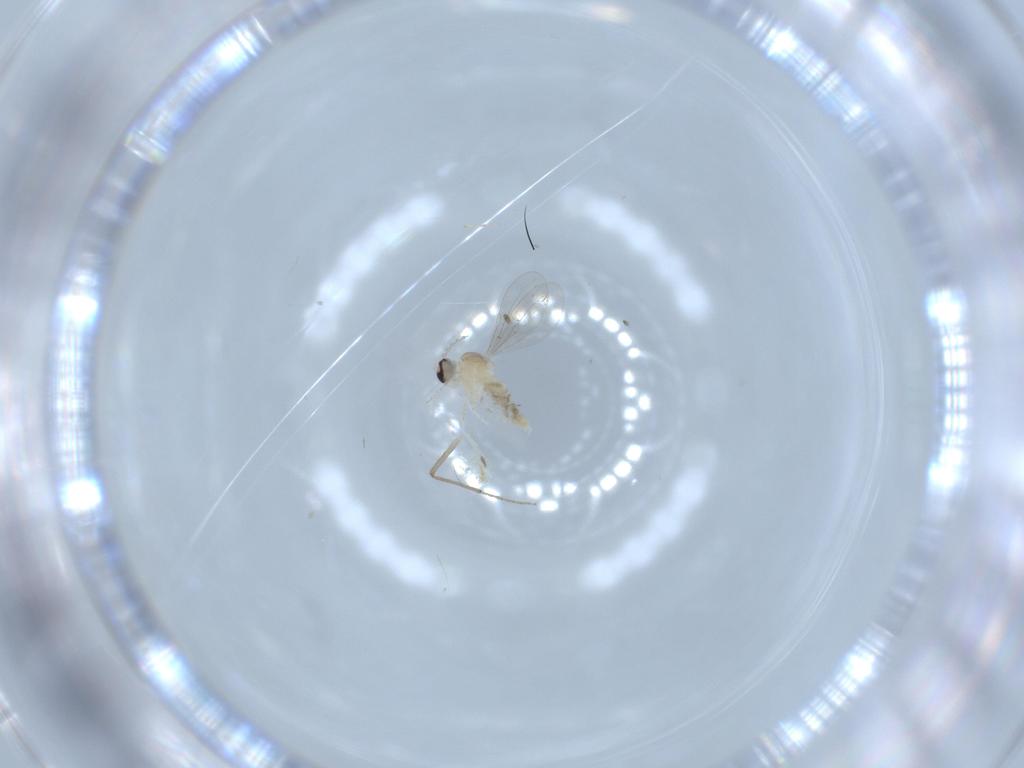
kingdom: Animalia
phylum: Arthropoda
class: Insecta
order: Diptera
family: Cecidomyiidae
